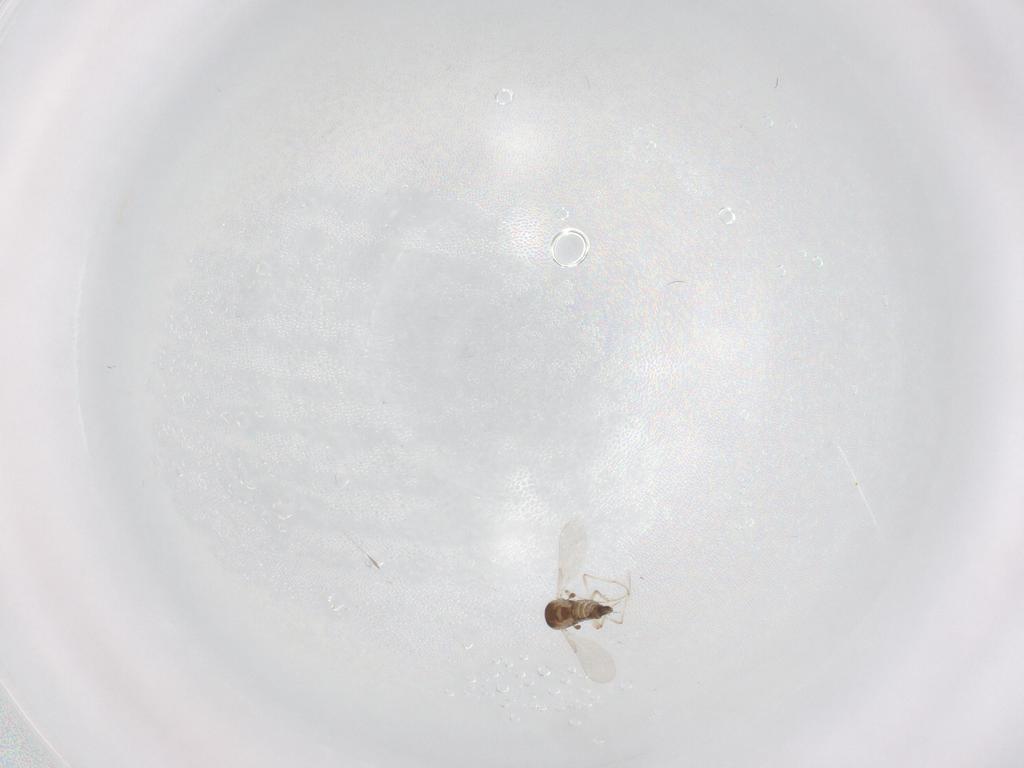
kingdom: Animalia
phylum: Arthropoda
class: Insecta
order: Diptera
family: Ceratopogonidae
